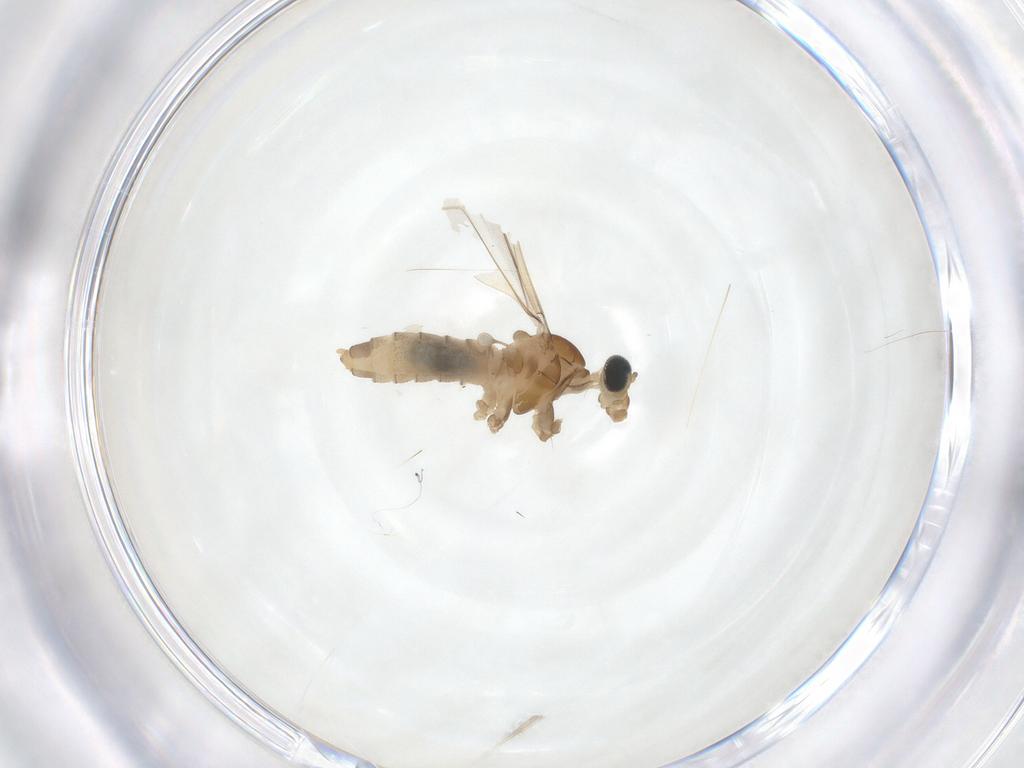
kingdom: Animalia
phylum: Arthropoda
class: Insecta
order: Diptera
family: Cecidomyiidae
